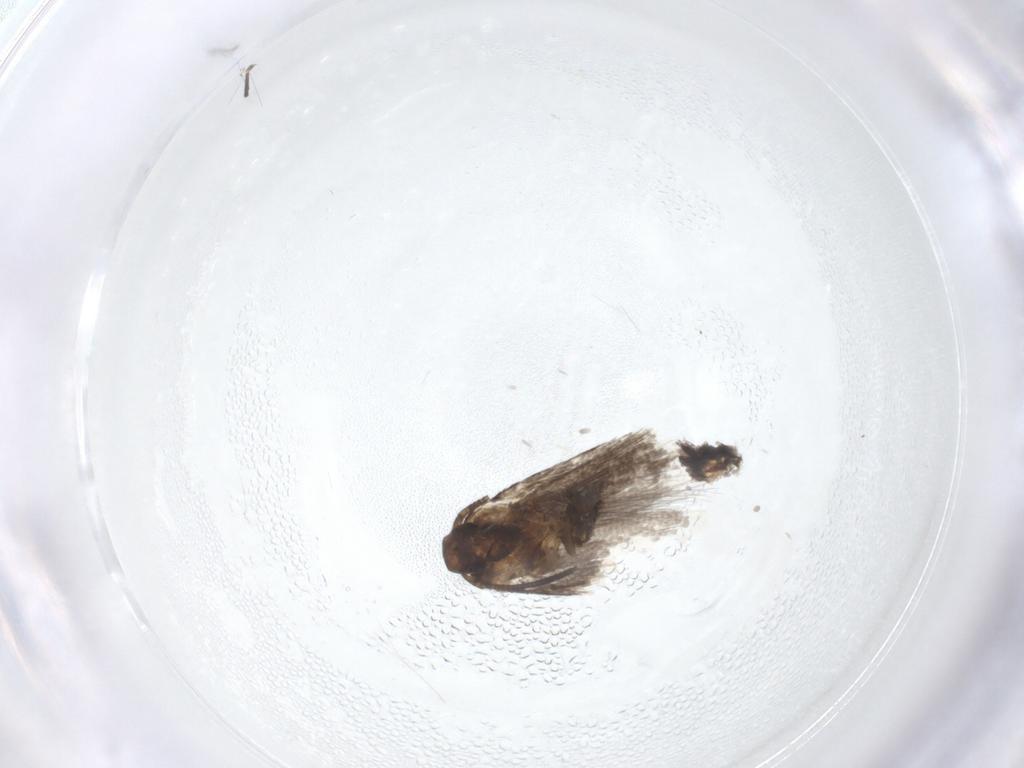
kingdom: Animalia
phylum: Arthropoda
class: Insecta
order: Lepidoptera
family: Elachistidae
